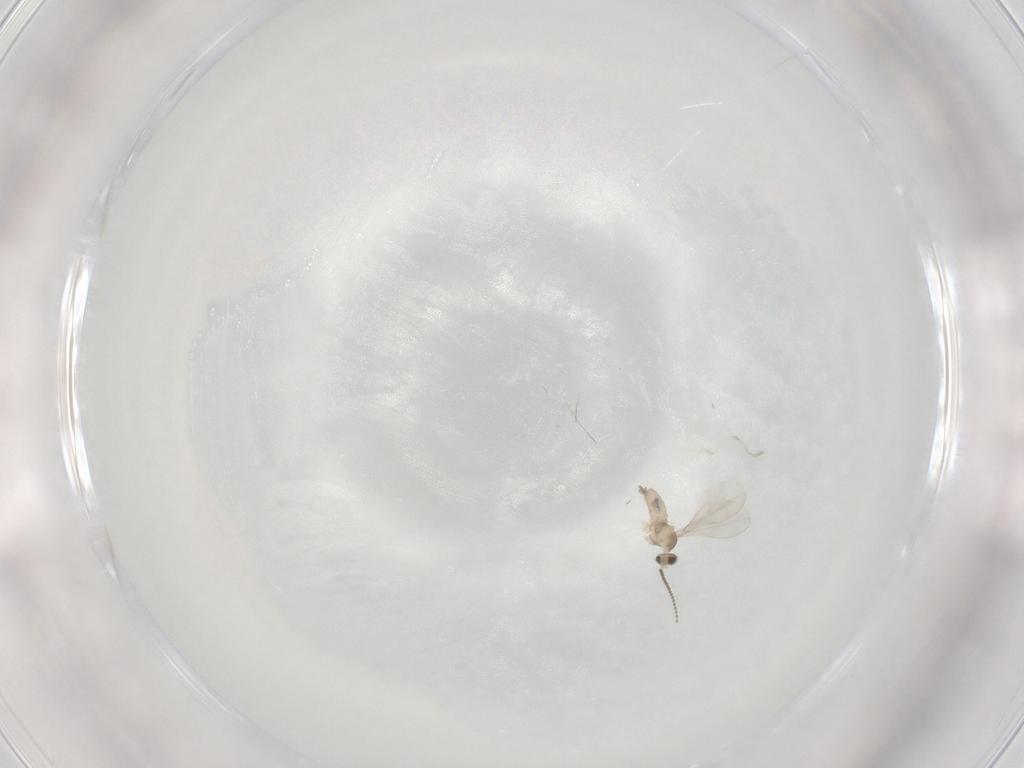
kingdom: Animalia
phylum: Arthropoda
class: Insecta
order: Diptera
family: Cecidomyiidae
